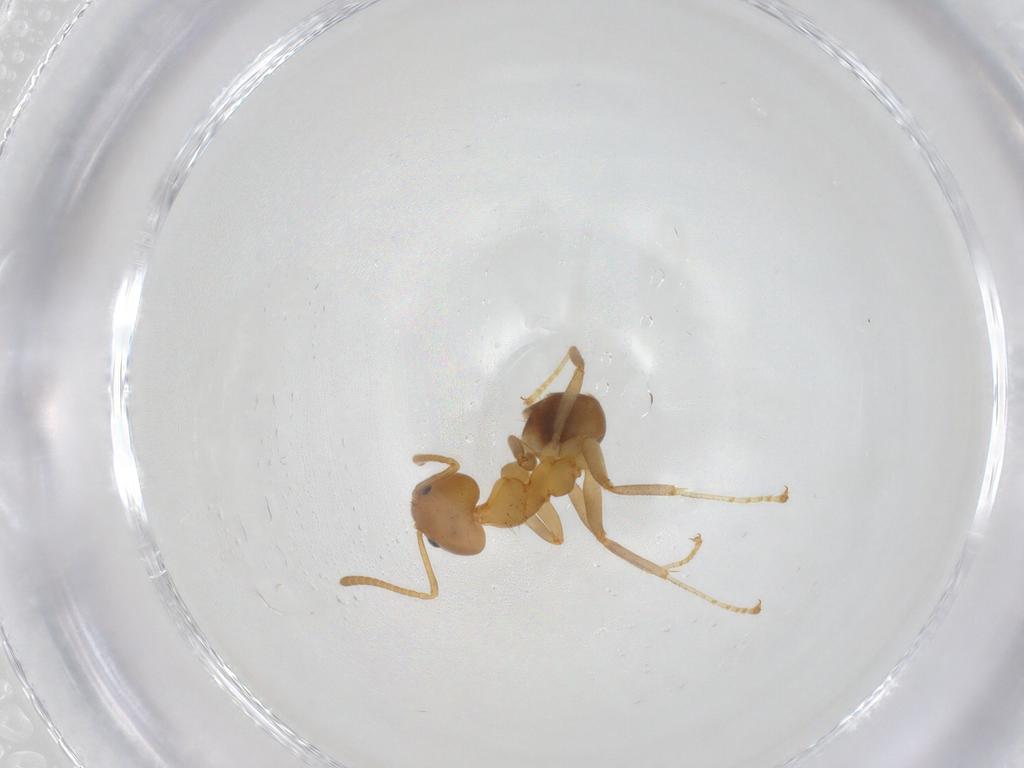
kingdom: Animalia
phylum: Arthropoda
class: Insecta
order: Hymenoptera
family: Formicidae
